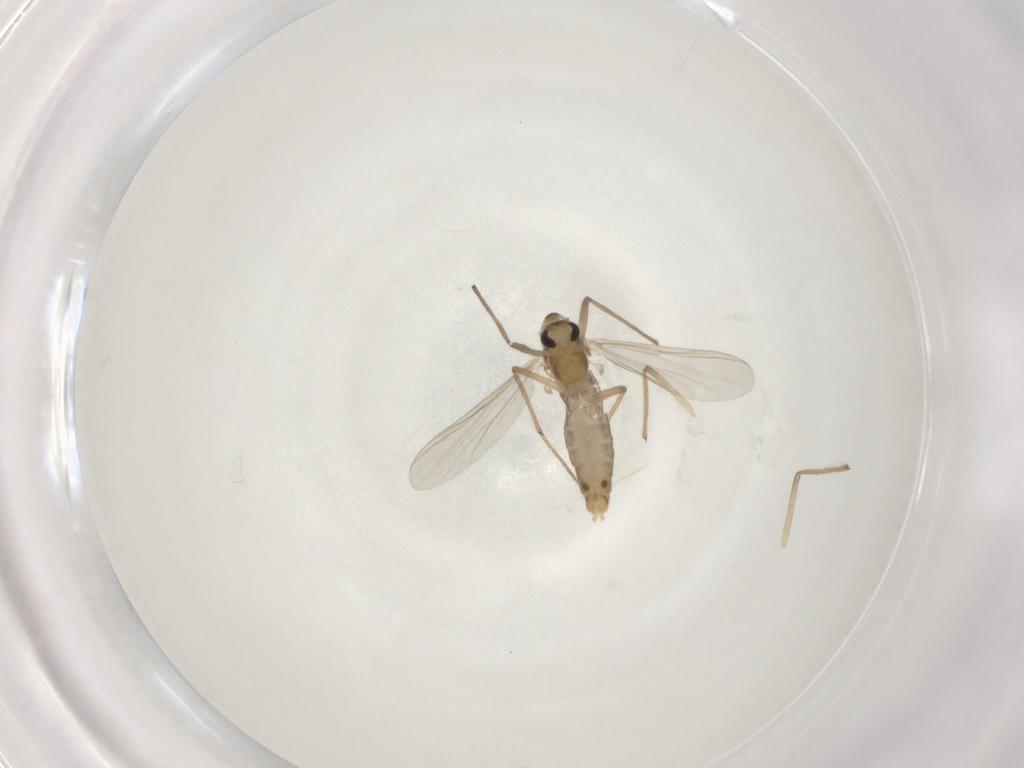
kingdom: Animalia
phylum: Arthropoda
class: Insecta
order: Diptera
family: Chironomidae
